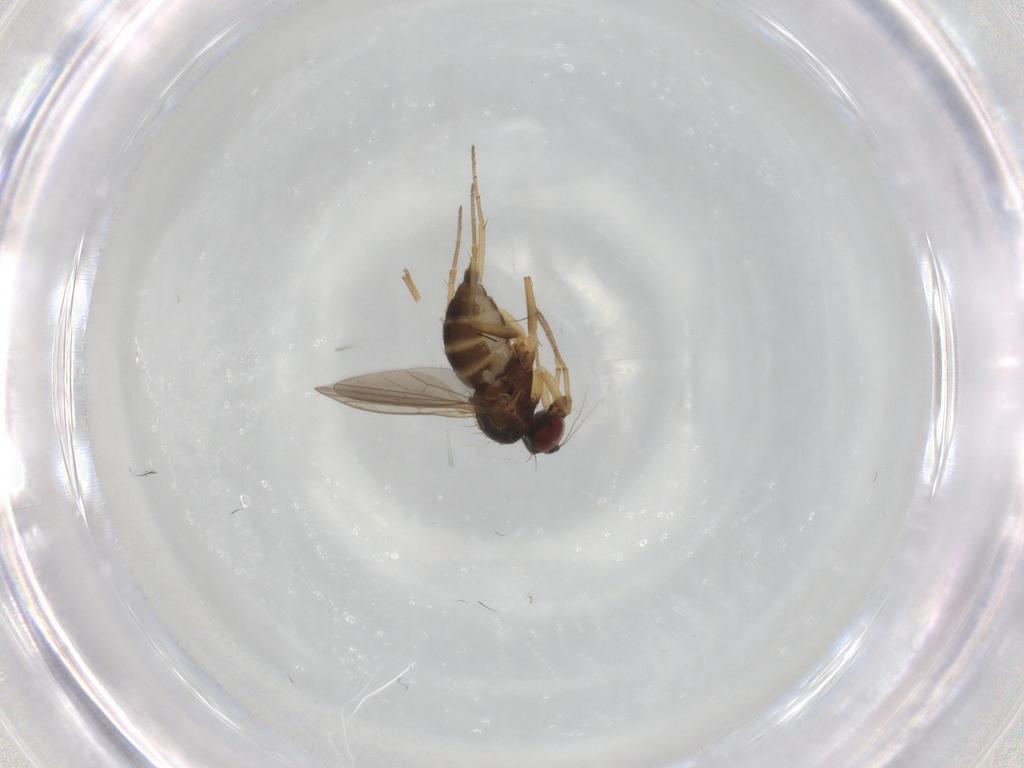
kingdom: Animalia
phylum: Arthropoda
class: Insecta
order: Diptera
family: Dolichopodidae
